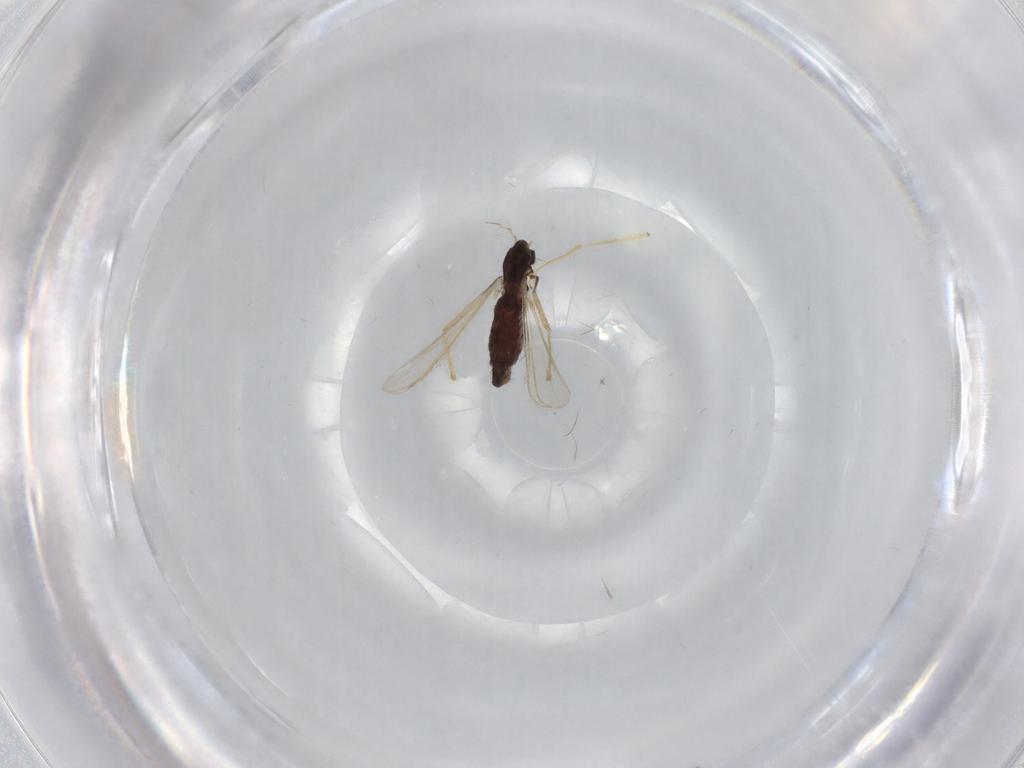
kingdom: Animalia
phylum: Arthropoda
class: Insecta
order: Diptera
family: Chironomidae
